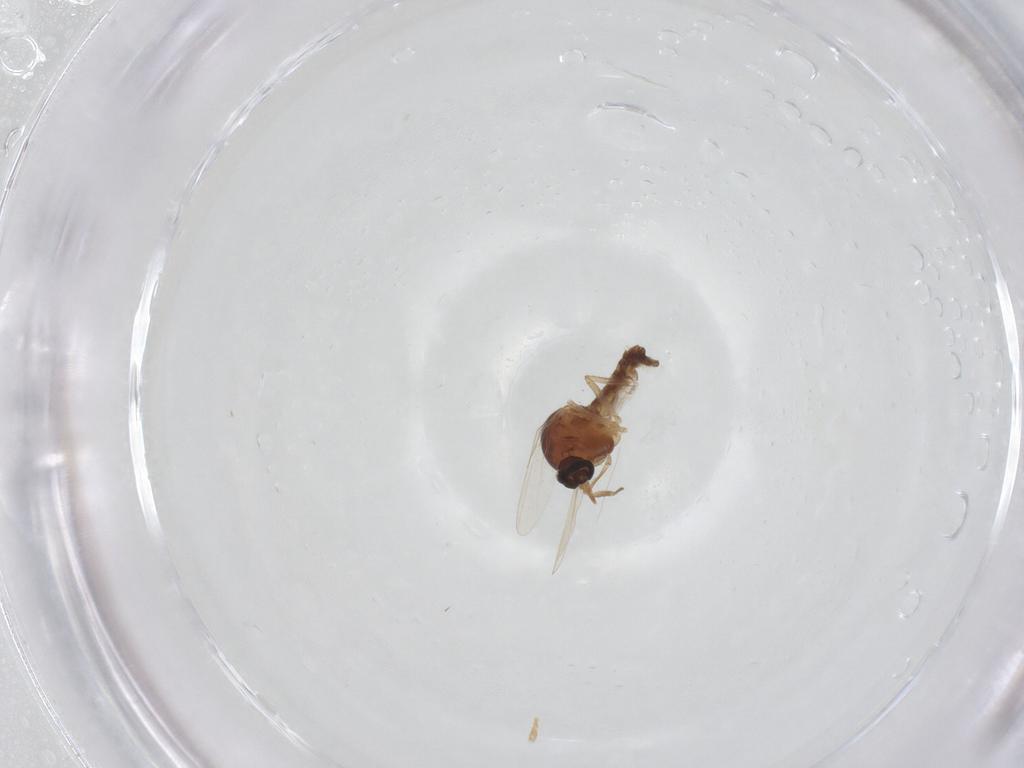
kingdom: Animalia
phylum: Arthropoda
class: Insecta
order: Diptera
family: Ceratopogonidae
